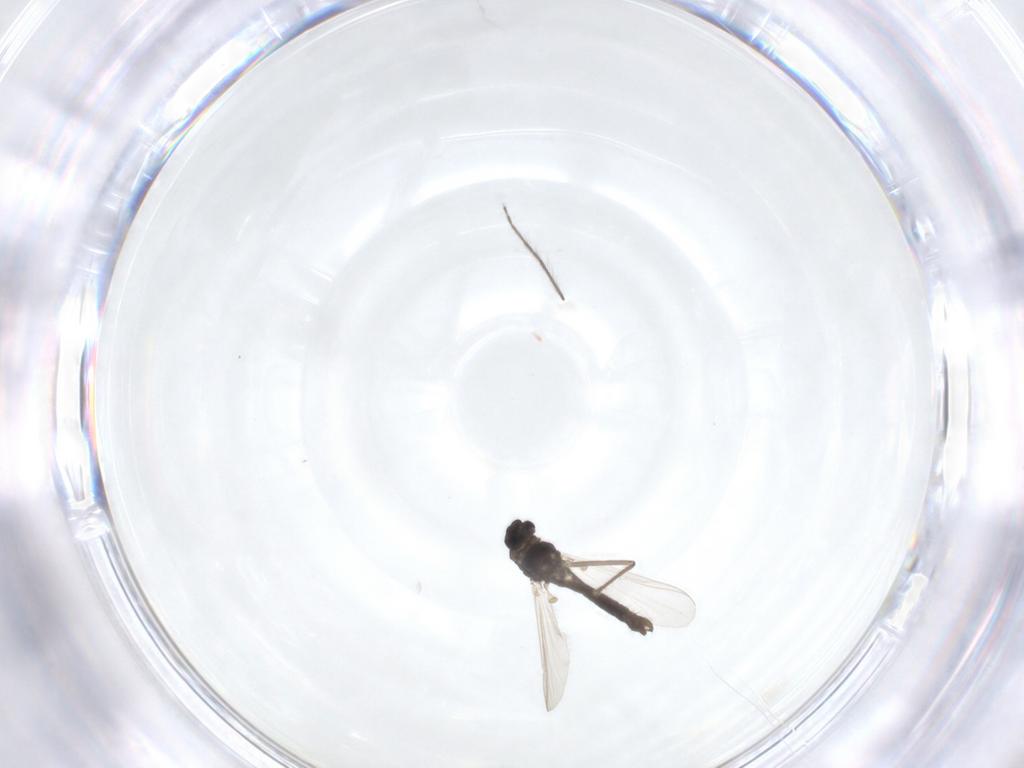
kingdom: Animalia
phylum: Arthropoda
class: Insecta
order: Diptera
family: Chironomidae
